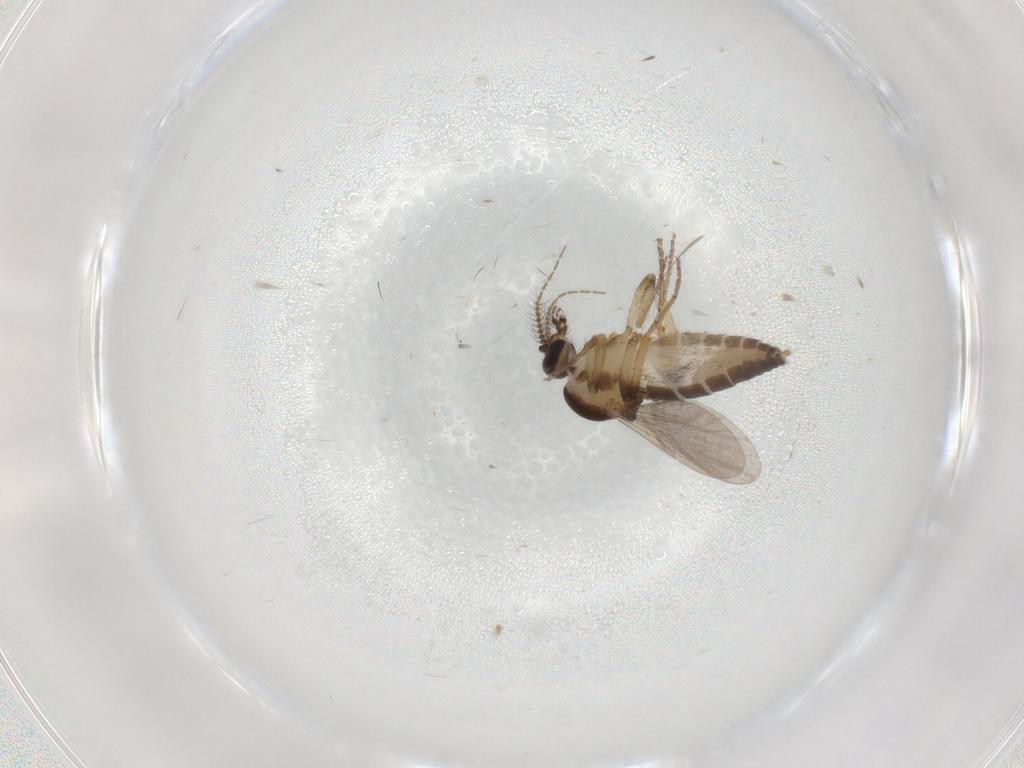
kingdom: Animalia
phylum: Arthropoda
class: Insecta
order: Diptera
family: Ceratopogonidae
